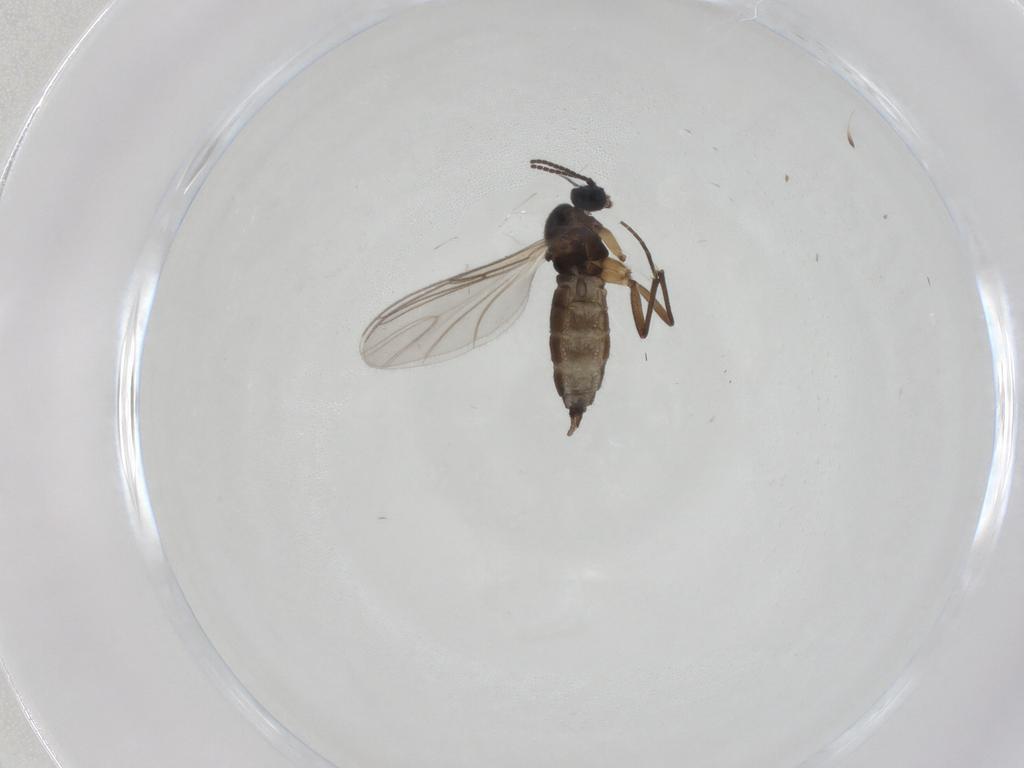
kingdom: Animalia
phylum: Arthropoda
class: Insecta
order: Diptera
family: Sciaridae
